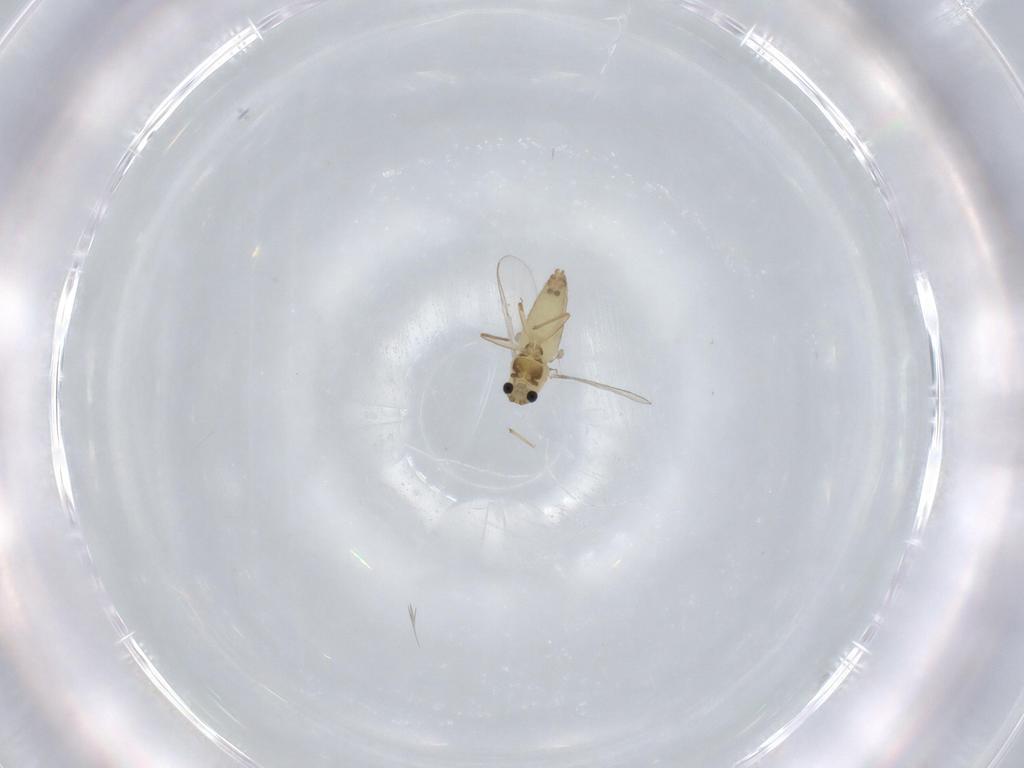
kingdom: Animalia
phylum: Arthropoda
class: Insecta
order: Diptera
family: Chironomidae
